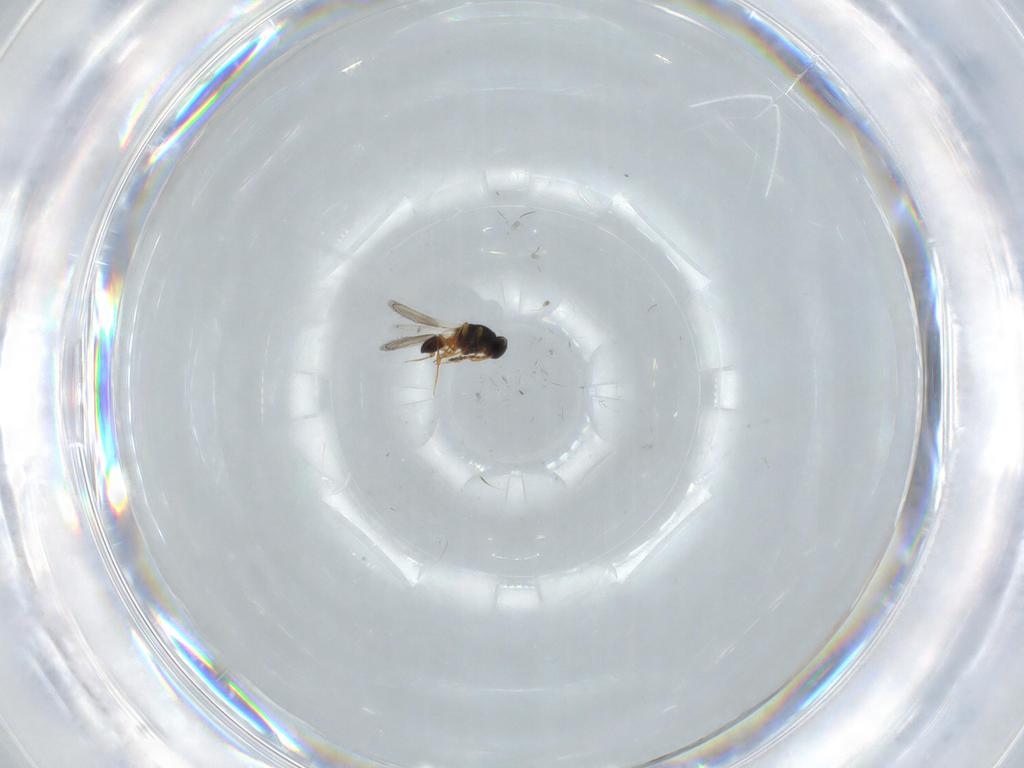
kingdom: Animalia
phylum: Arthropoda
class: Insecta
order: Hymenoptera
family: Platygastridae
